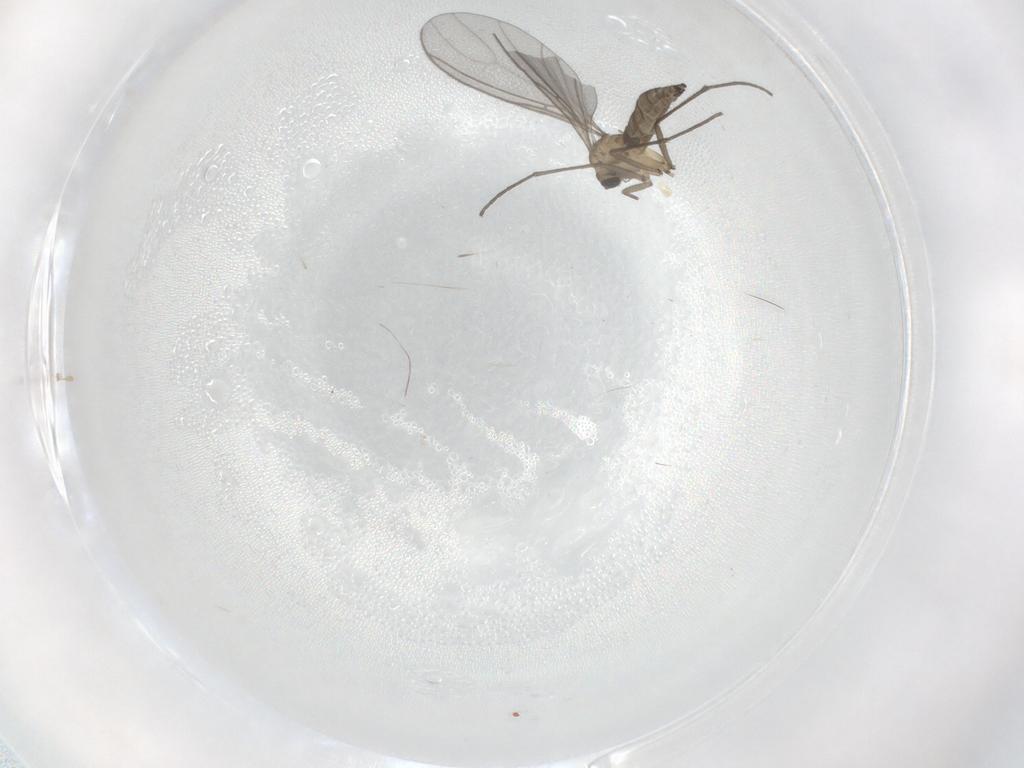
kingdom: Animalia
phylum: Arthropoda
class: Insecta
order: Diptera
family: Sciaridae
